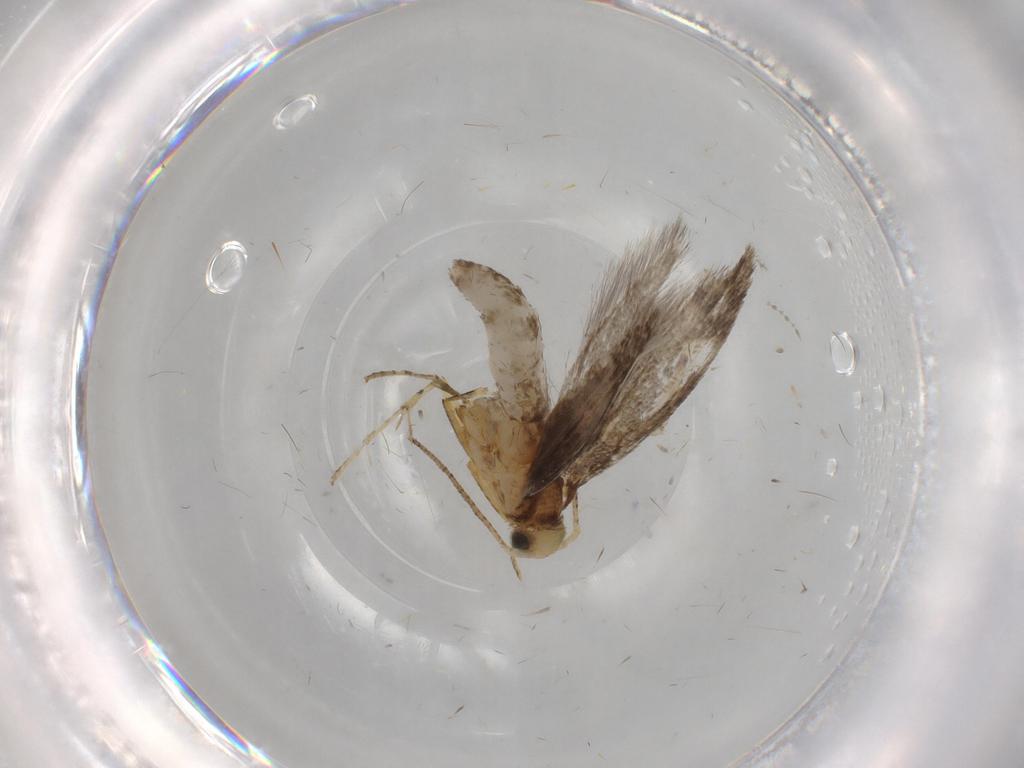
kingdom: Animalia
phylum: Arthropoda
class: Insecta
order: Lepidoptera
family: Argyresthiidae
